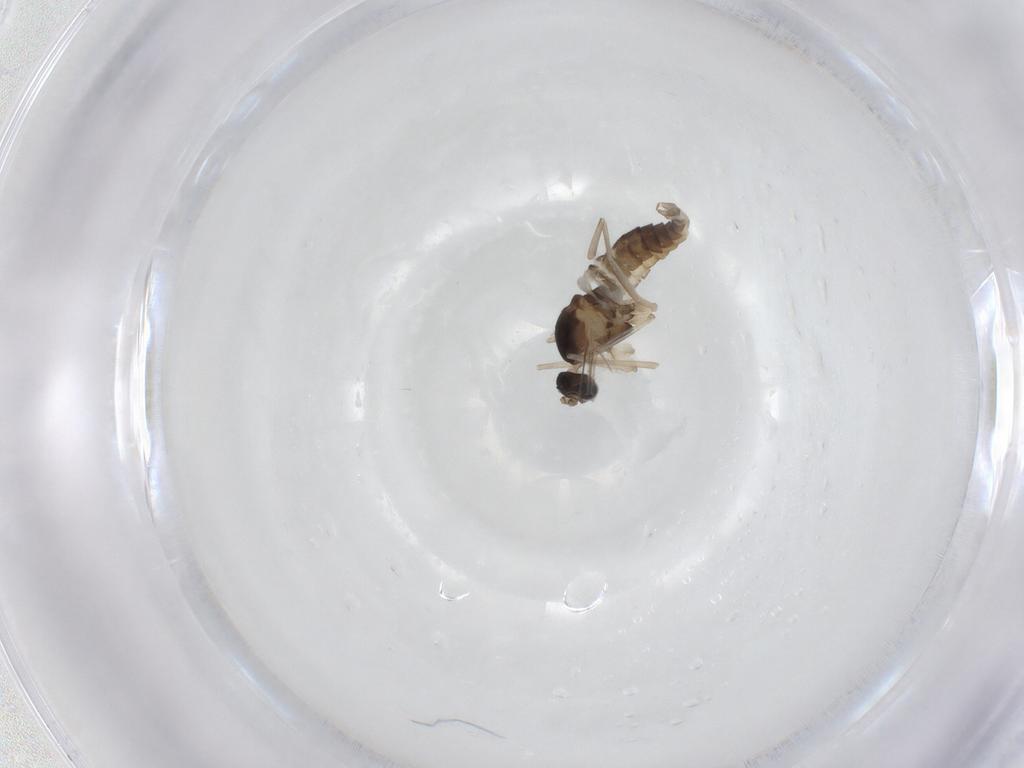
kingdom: Animalia
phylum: Arthropoda
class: Insecta
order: Diptera
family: Cecidomyiidae
